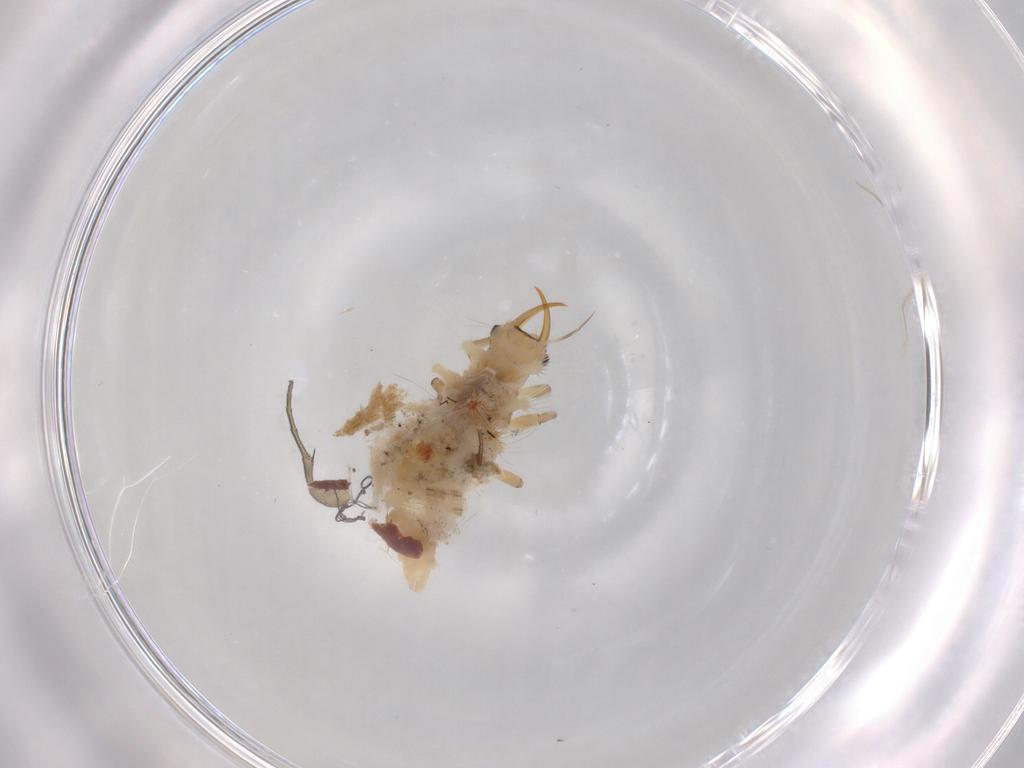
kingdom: Animalia
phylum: Arthropoda
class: Insecta
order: Neuroptera
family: Chrysopidae
